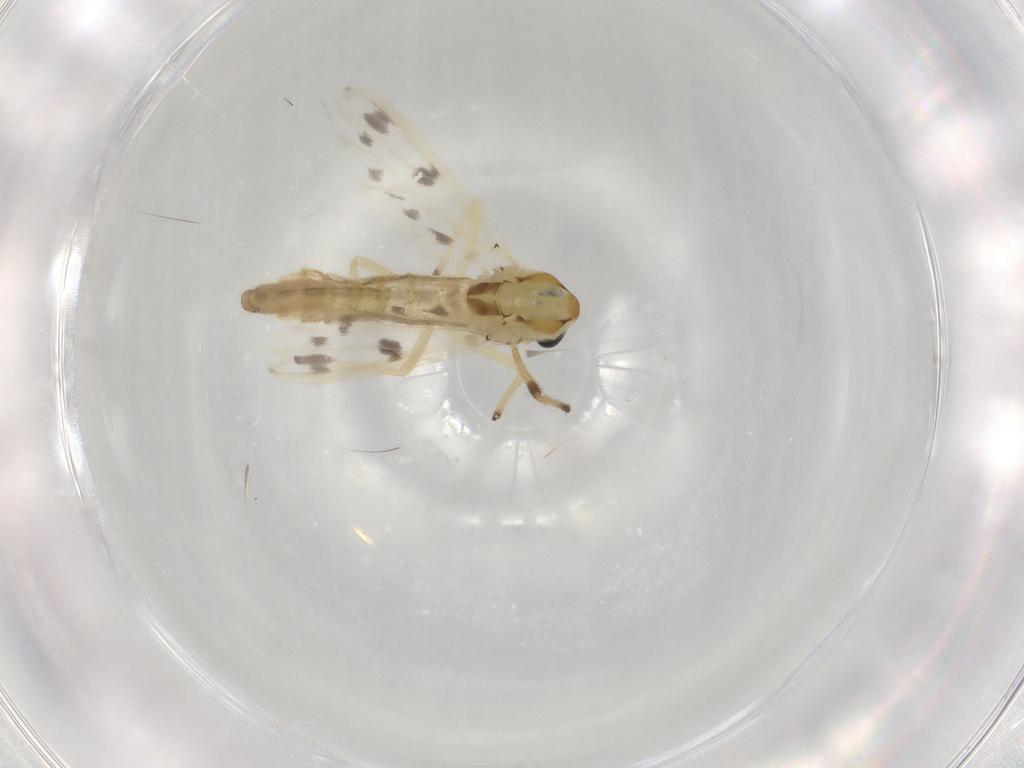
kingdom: Animalia
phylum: Arthropoda
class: Insecta
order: Diptera
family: Chironomidae
